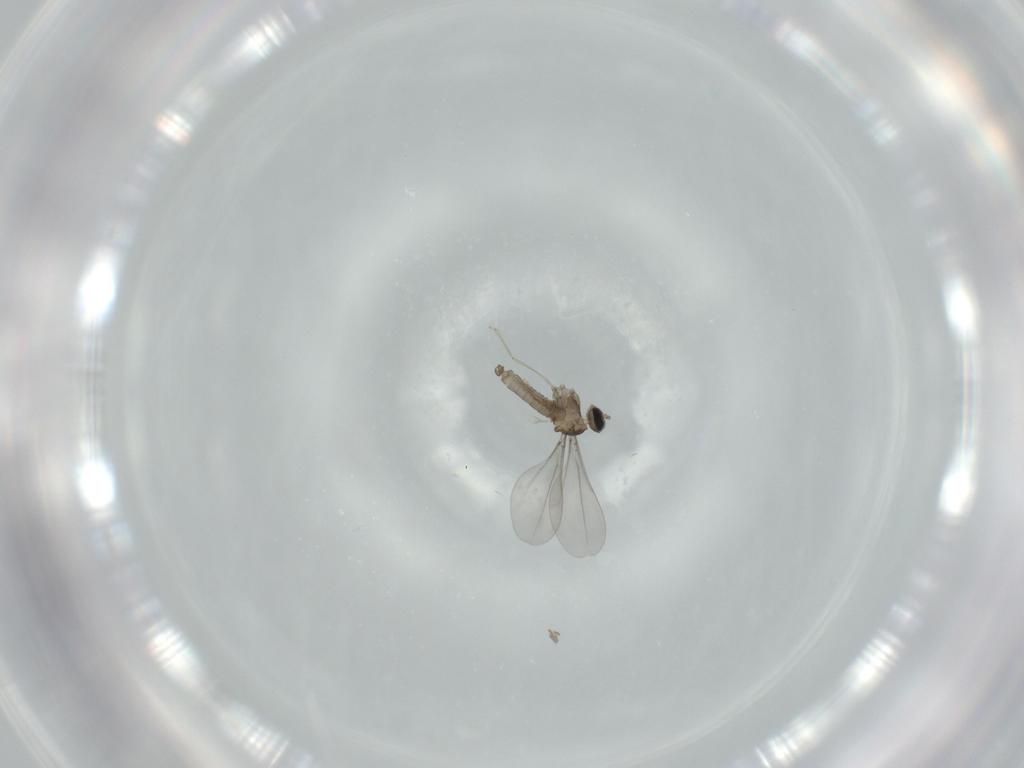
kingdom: Animalia
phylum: Arthropoda
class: Insecta
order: Diptera
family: Cecidomyiidae
